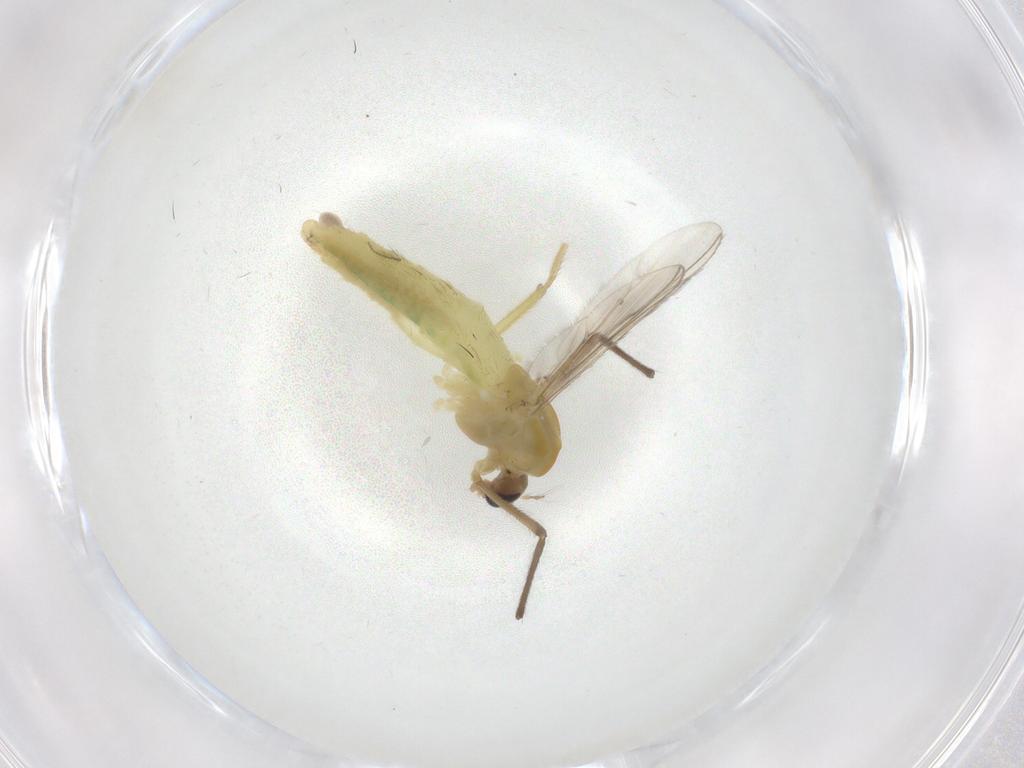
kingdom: Animalia
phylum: Arthropoda
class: Insecta
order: Diptera
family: Chironomidae
